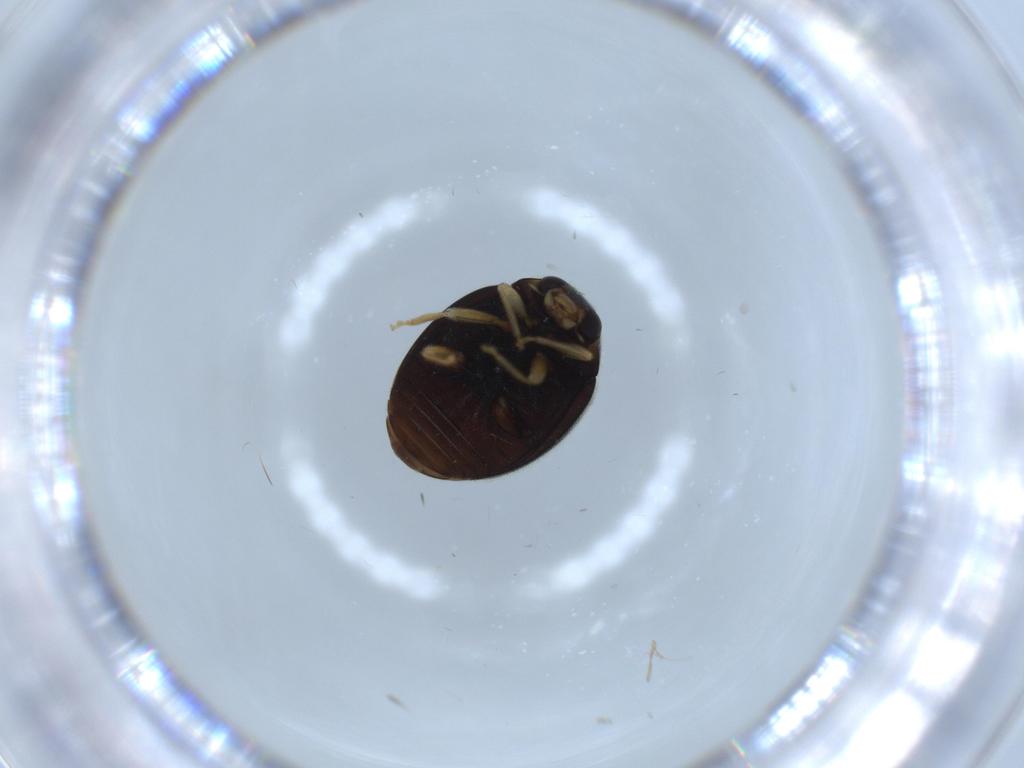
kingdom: Animalia
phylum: Arthropoda
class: Insecta
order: Coleoptera
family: Coccinellidae
